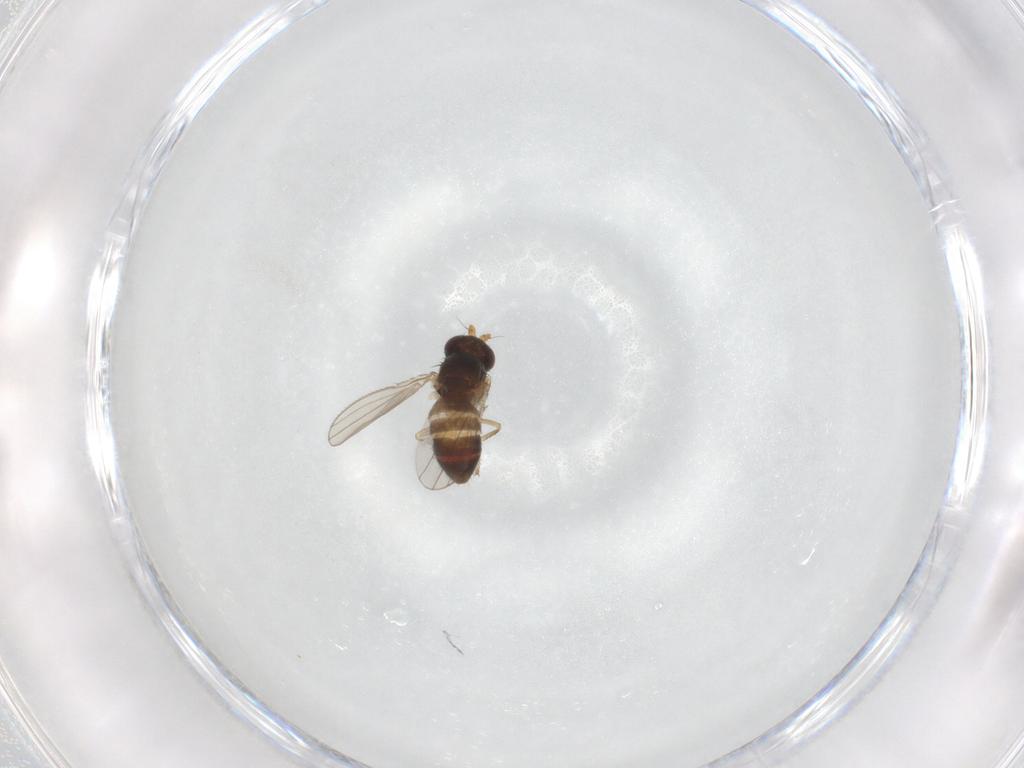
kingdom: Animalia
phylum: Arthropoda
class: Insecta
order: Diptera
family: Ephydridae
